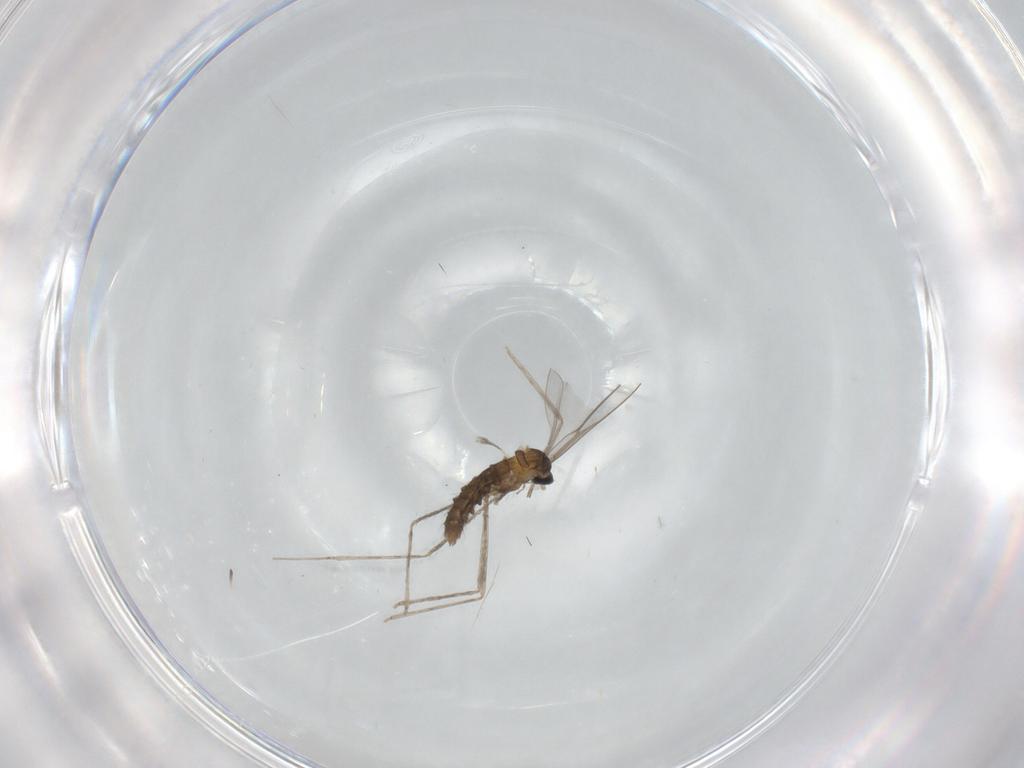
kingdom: Animalia
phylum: Arthropoda
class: Insecta
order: Diptera
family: Cecidomyiidae
